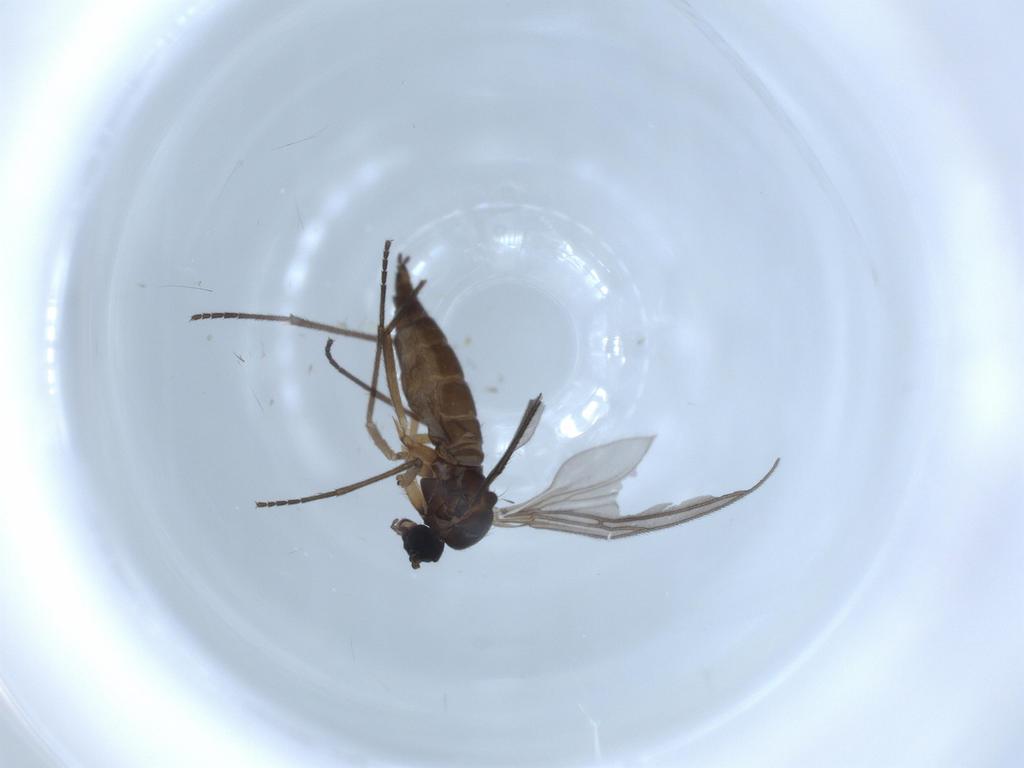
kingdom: Animalia
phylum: Arthropoda
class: Insecta
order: Diptera
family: Sciaridae
